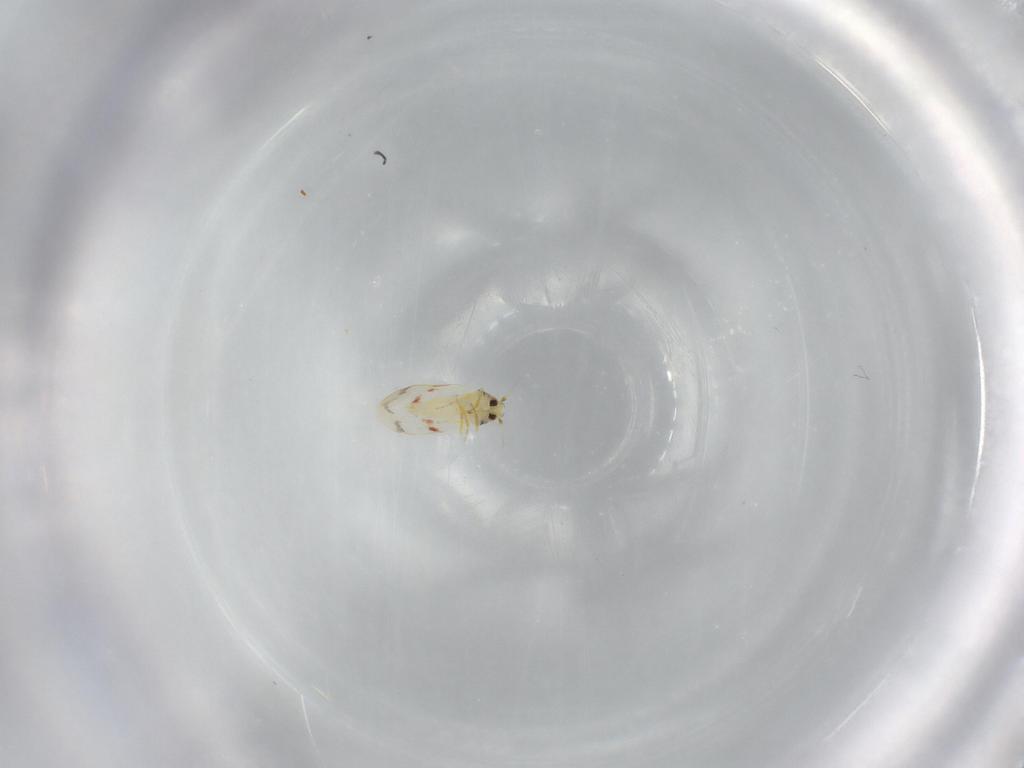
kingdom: Animalia
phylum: Arthropoda
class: Insecta
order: Hemiptera
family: Aleyrodidae
